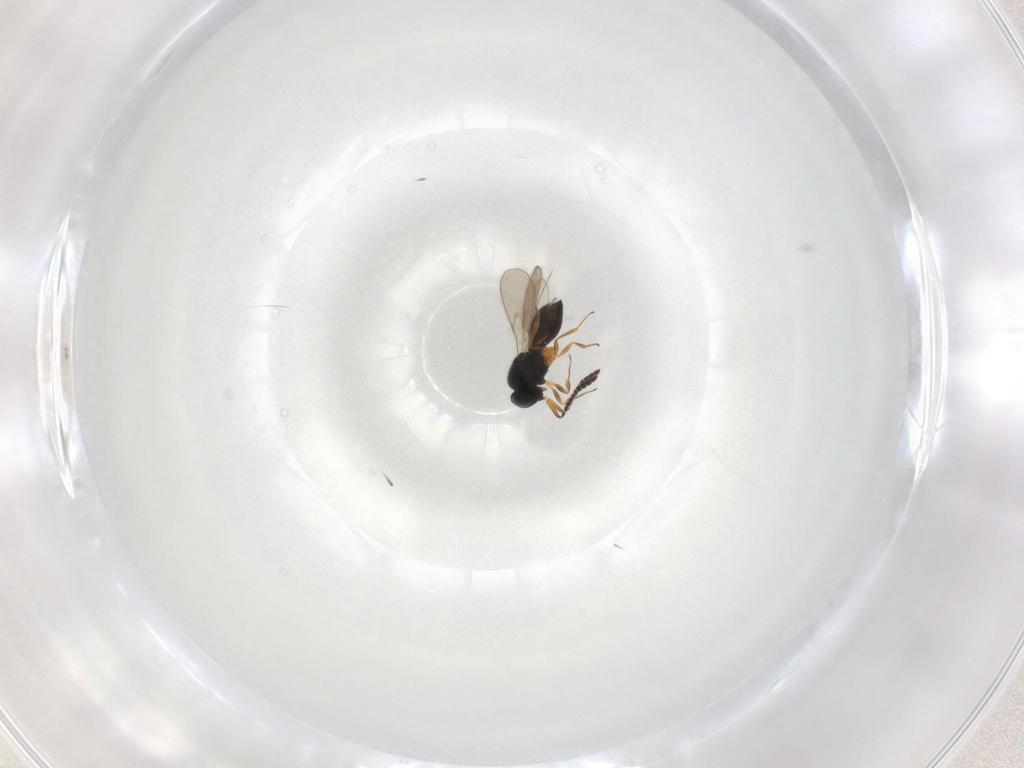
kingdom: Animalia
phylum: Arthropoda
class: Insecta
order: Hymenoptera
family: Scelionidae
